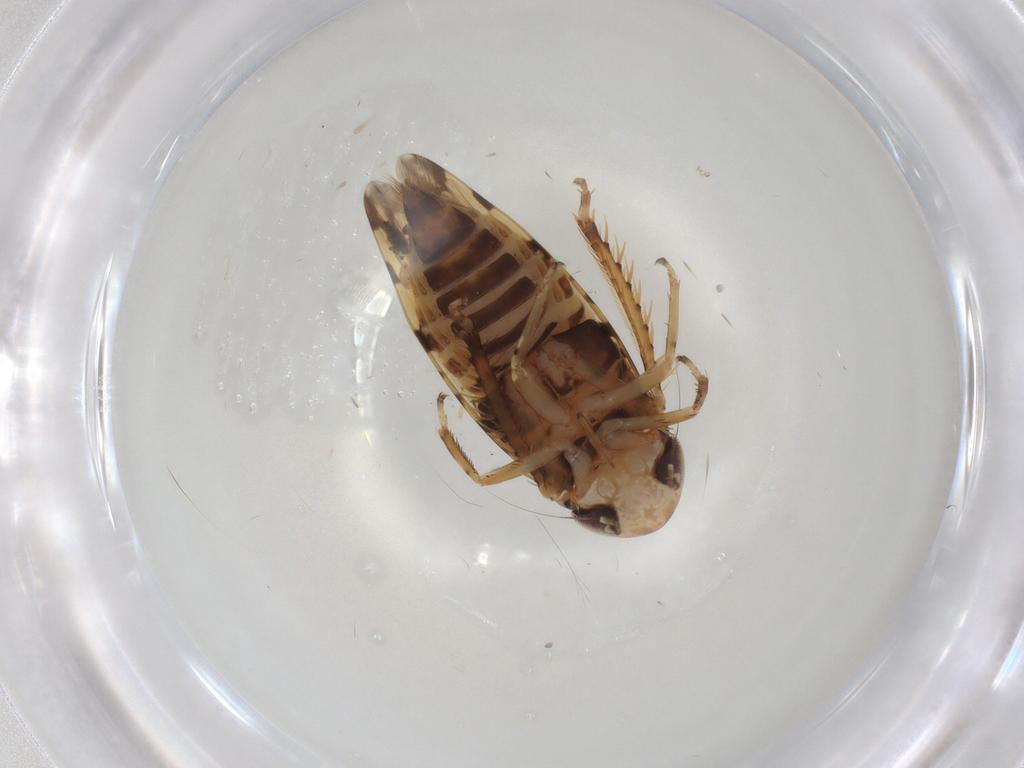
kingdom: Animalia
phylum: Arthropoda
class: Insecta
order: Hemiptera
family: Cicadellidae
